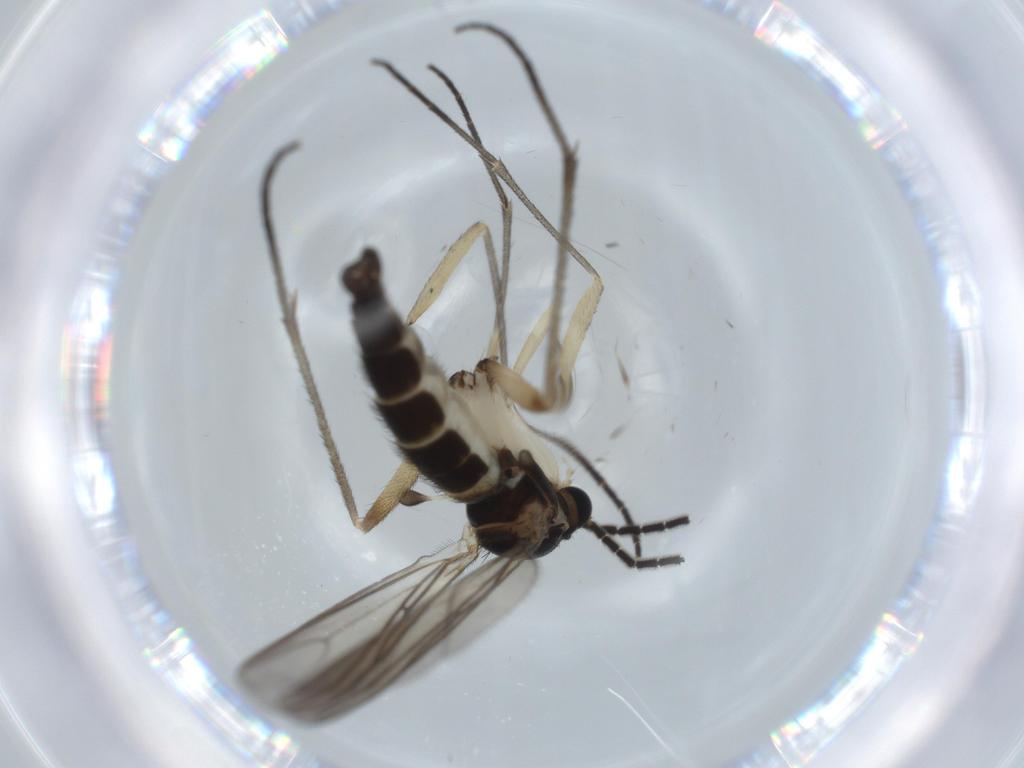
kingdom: Animalia
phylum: Arthropoda
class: Insecta
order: Diptera
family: Sciaridae
